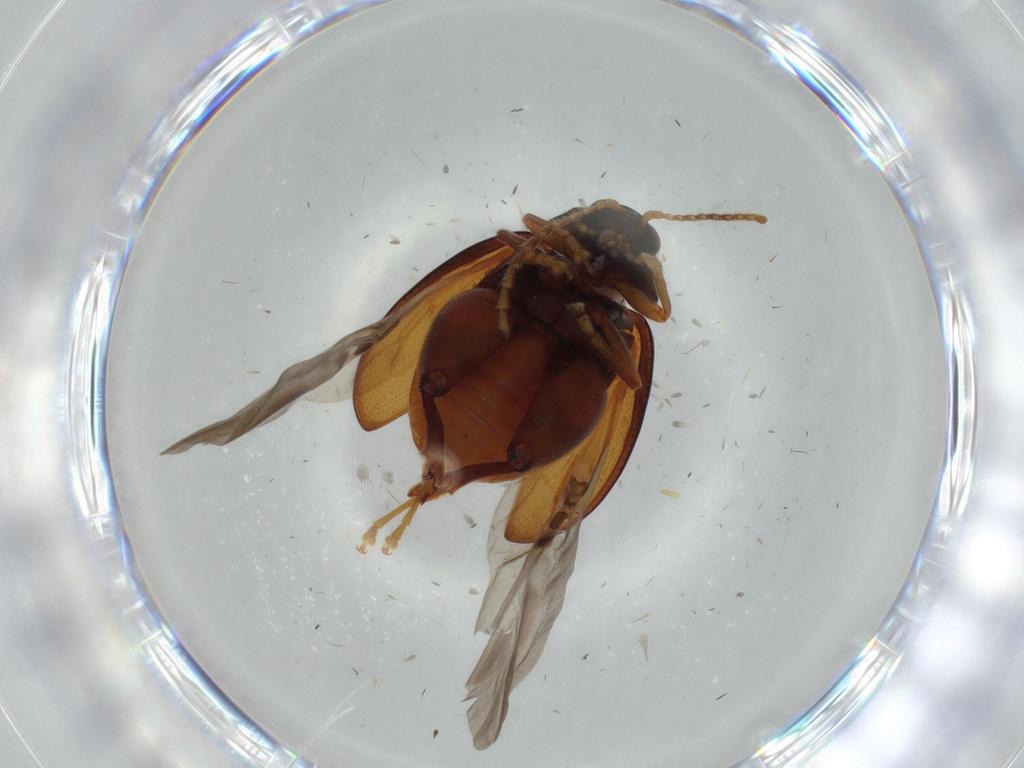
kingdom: Animalia
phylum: Arthropoda
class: Insecta
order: Coleoptera
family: Chrysomelidae
